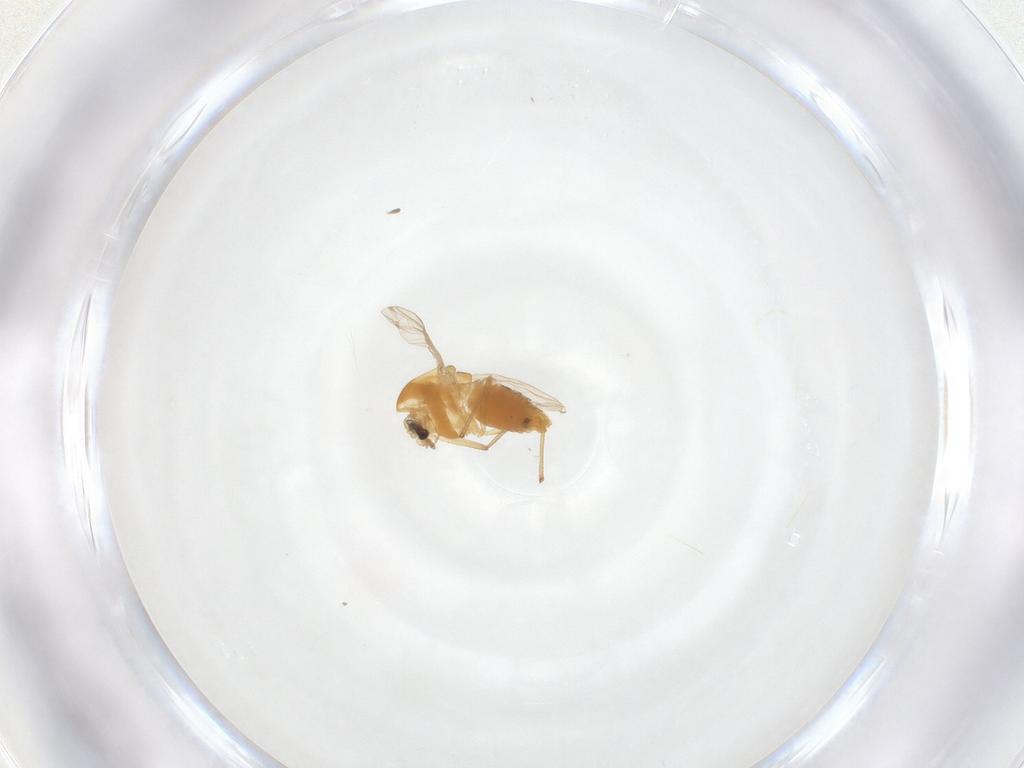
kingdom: Animalia
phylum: Arthropoda
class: Insecta
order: Diptera
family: Chironomidae
